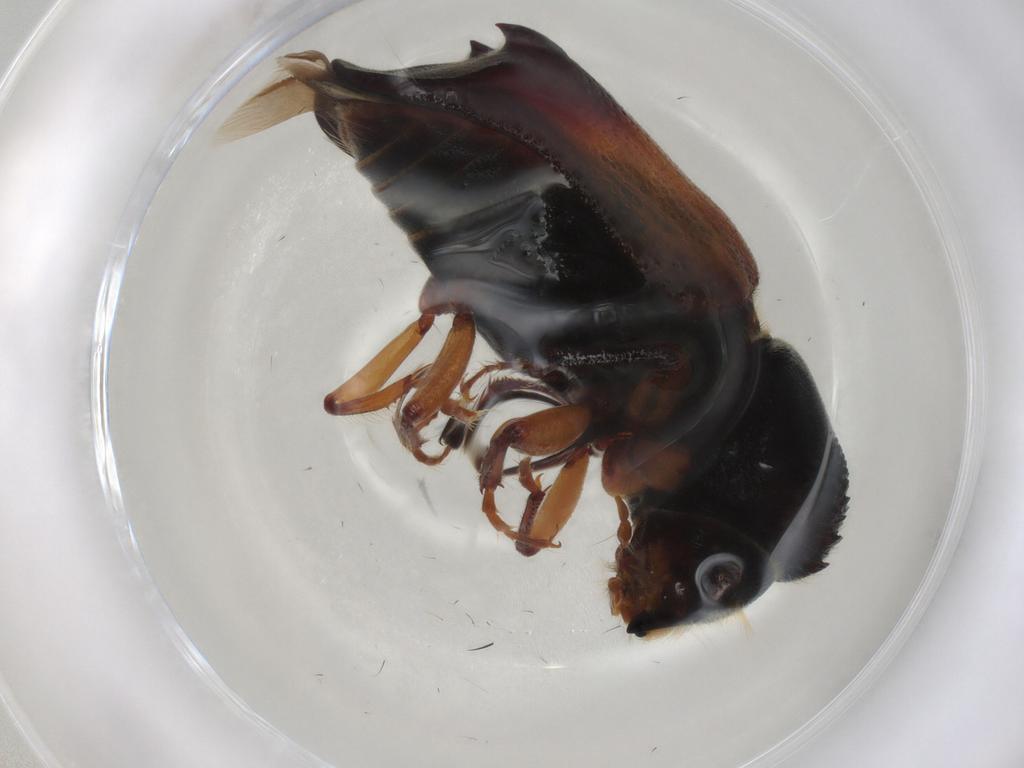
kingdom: Animalia
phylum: Arthropoda
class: Insecta
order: Coleoptera
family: Bostrichidae
